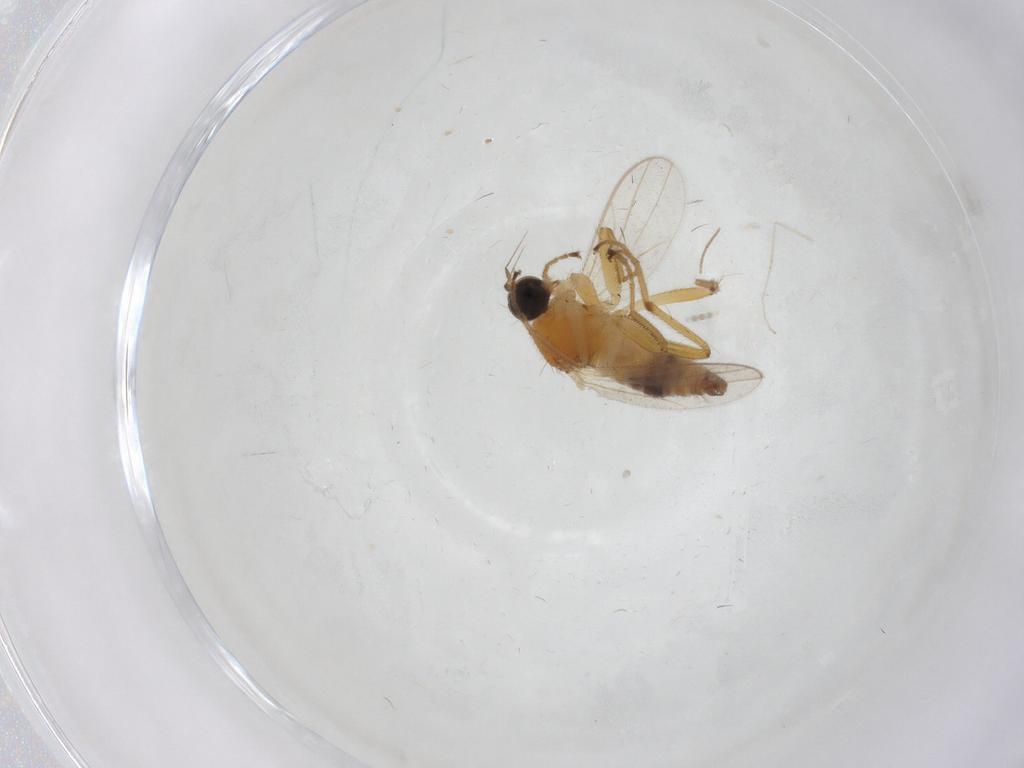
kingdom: Animalia
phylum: Arthropoda
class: Insecta
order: Diptera
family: Hybotidae
